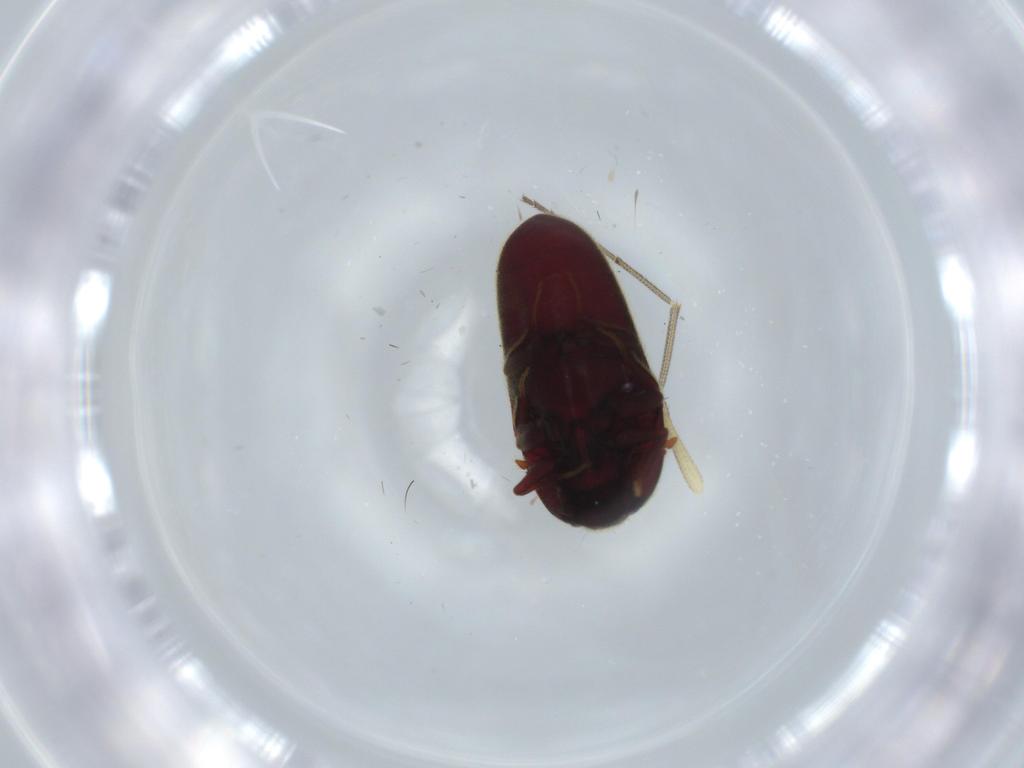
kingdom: Animalia
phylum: Arthropoda
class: Insecta
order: Coleoptera
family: Throscidae
